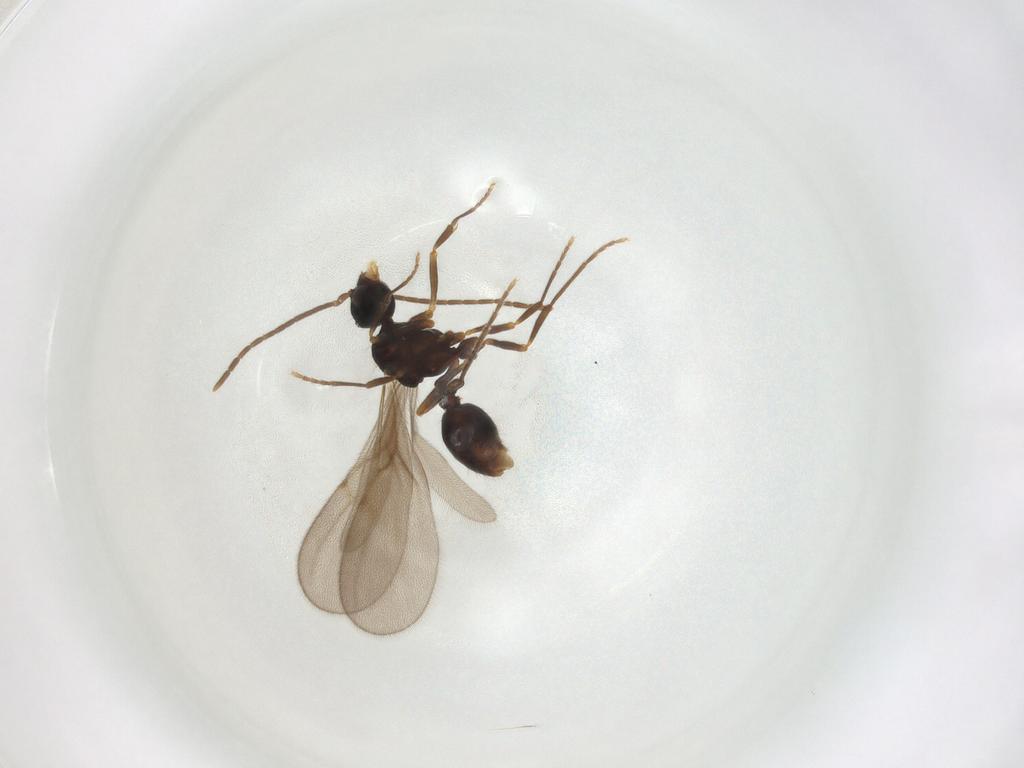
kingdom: Animalia
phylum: Arthropoda
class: Insecta
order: Hymenoptera
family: Formicidae
